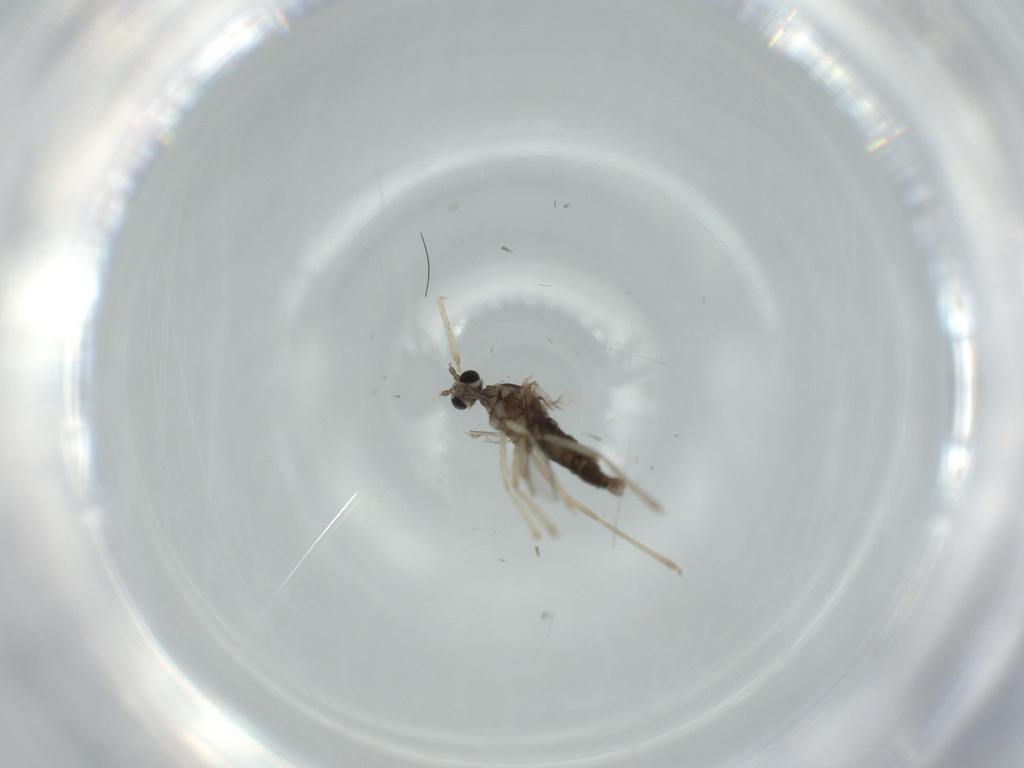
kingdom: Animalia
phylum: Arthropoda
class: Insecta
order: Diptera
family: Cecidomyiidae
